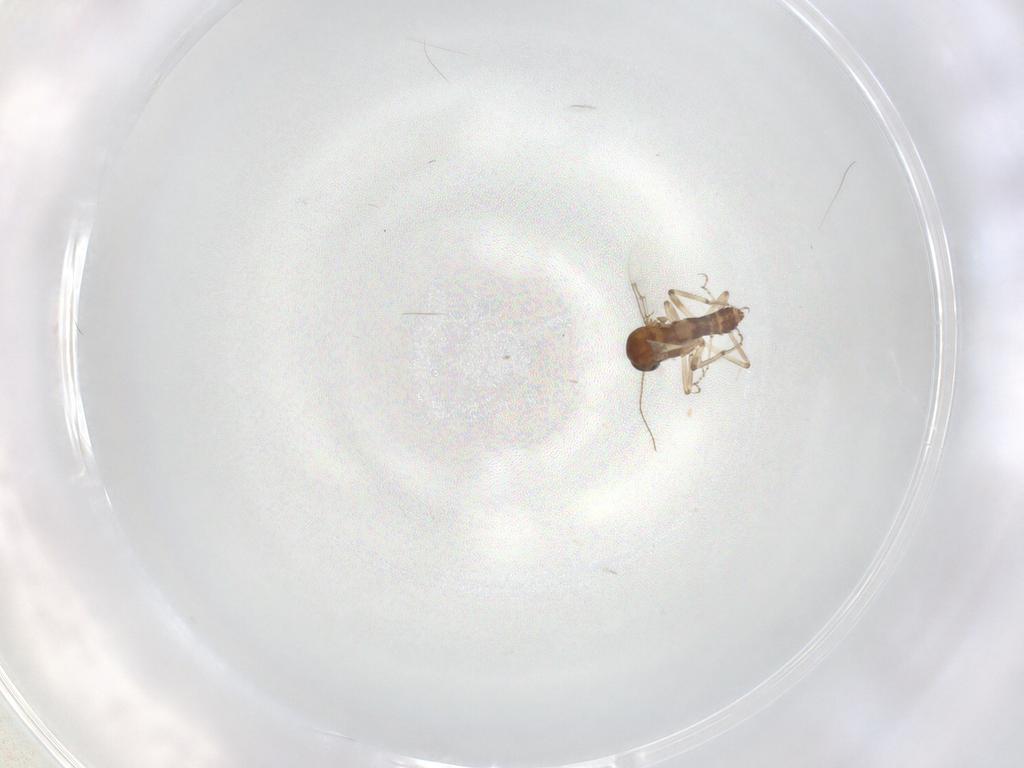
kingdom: Animalia
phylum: Arthropoda
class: Insecta
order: Diptera
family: Ceratopogonidae
